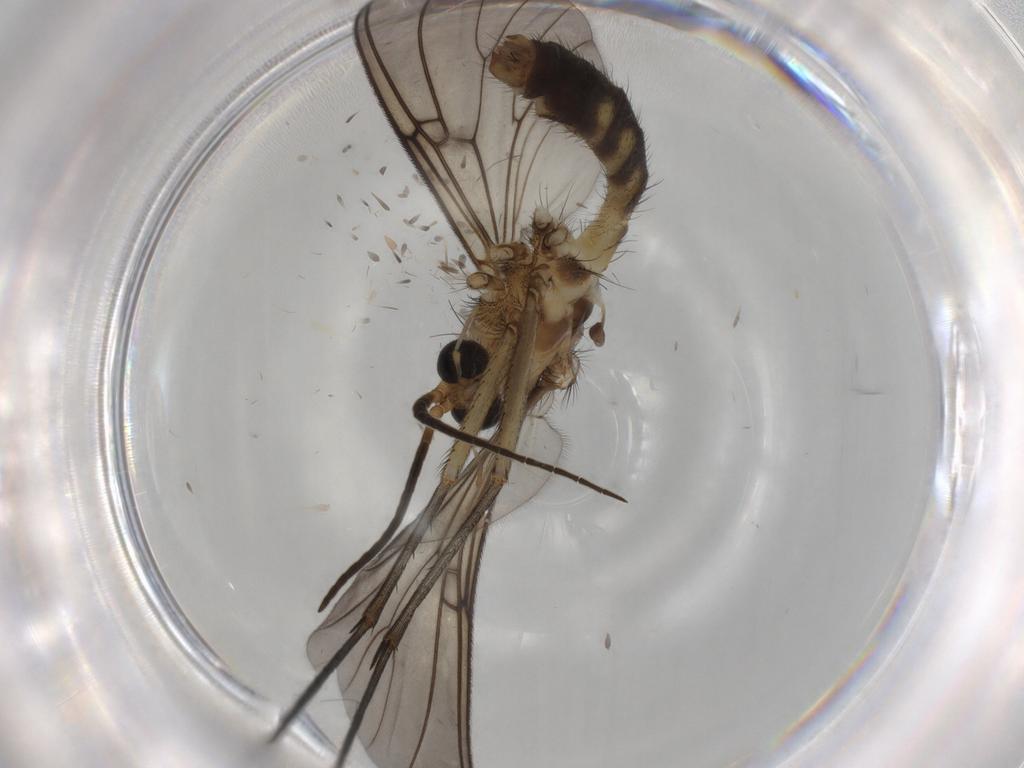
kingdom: Animalia
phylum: Arthropoda
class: Insecta
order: Diptera
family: Mycetophilidae
